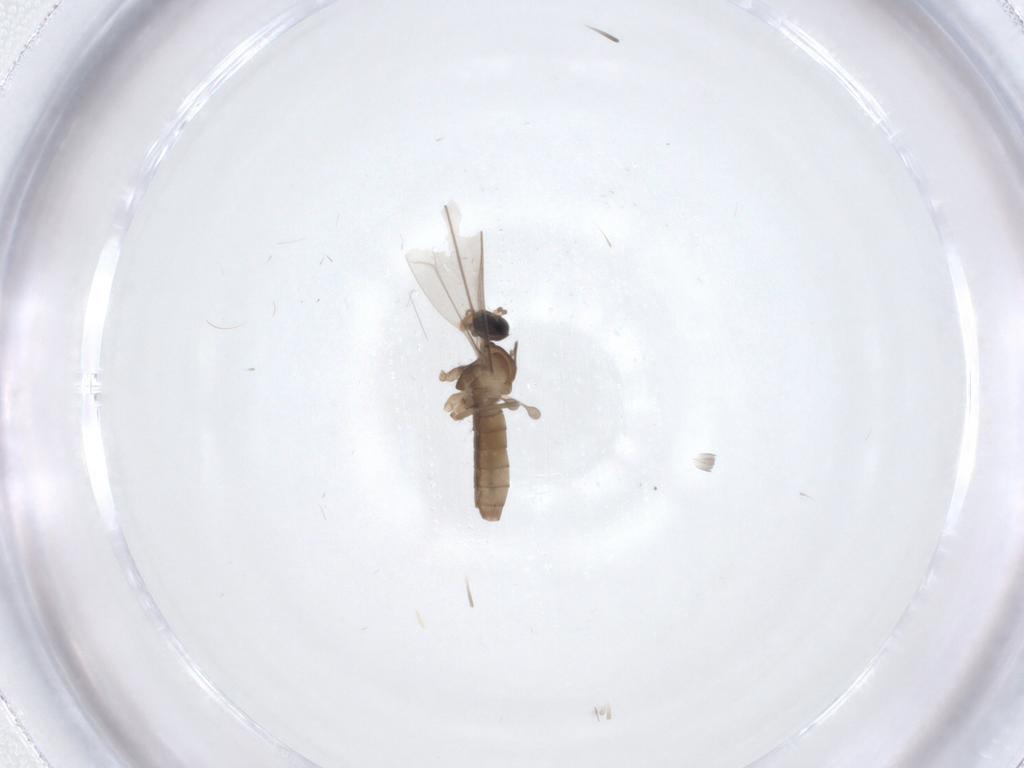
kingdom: Animalia
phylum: Arthropoda
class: Insecta
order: Diptera
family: Cecidomyiidae
